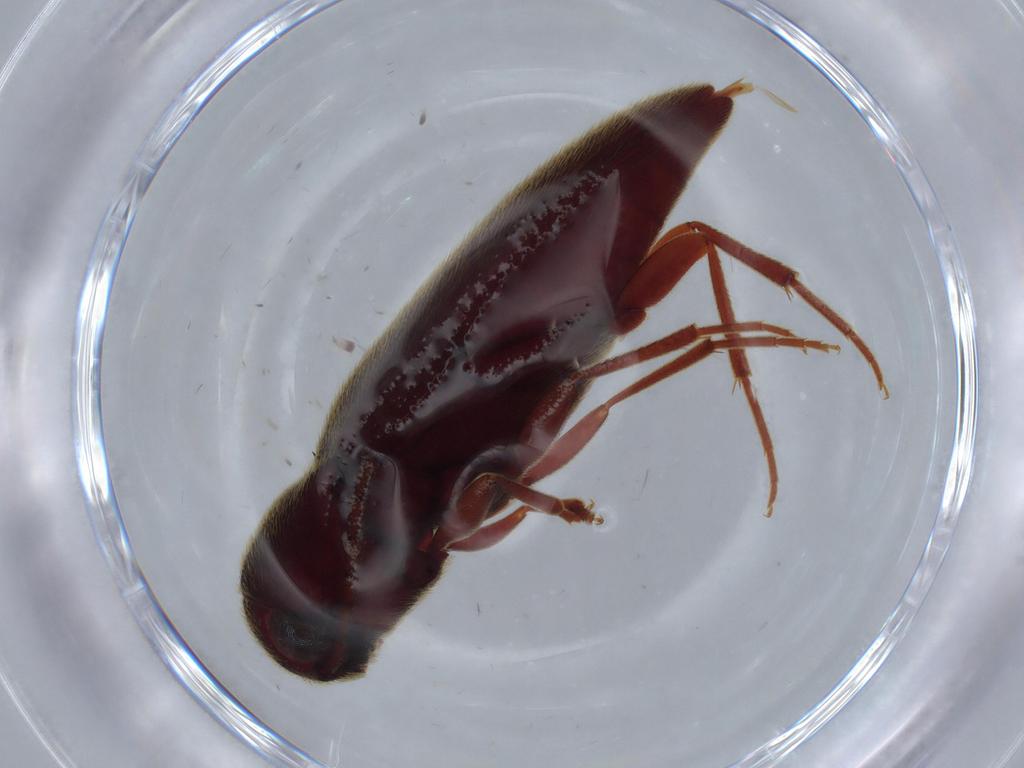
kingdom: Animalia
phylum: Arthropoda
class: Insecta
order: Coleoptera
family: Eucnemidae
